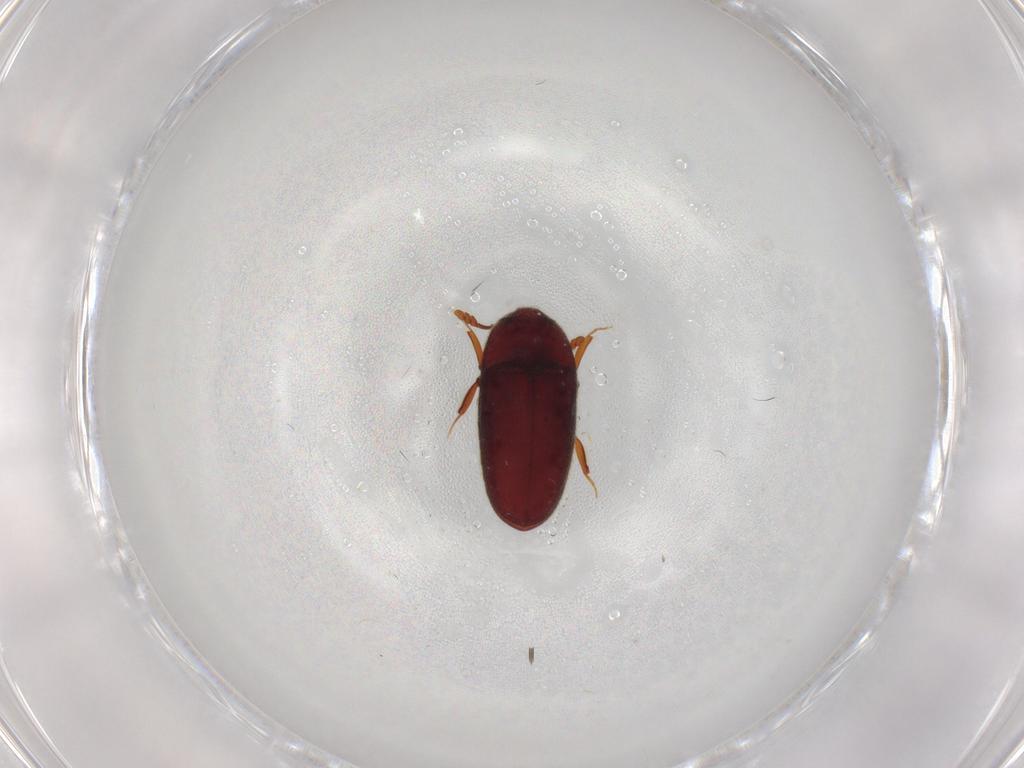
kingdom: Animalia
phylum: Arthropoda
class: Insecta
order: Coleoptera
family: Throscidae
